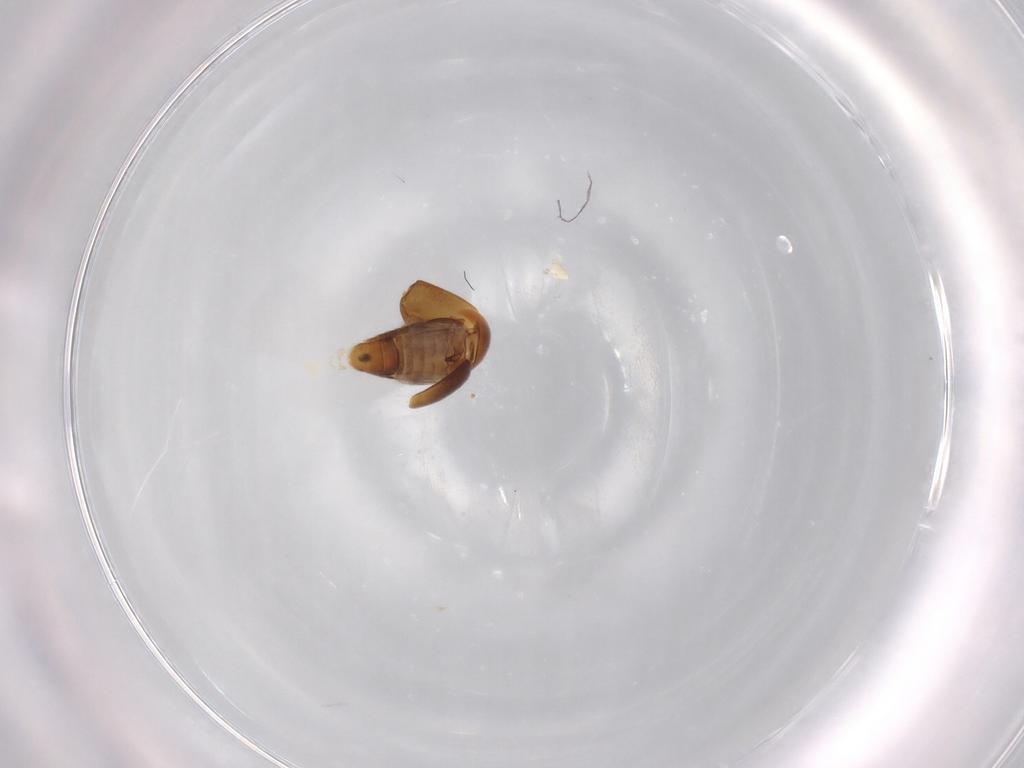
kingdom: Animalia
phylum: Arthropoda
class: Insecta
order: Coleoptera
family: Corylophidae
